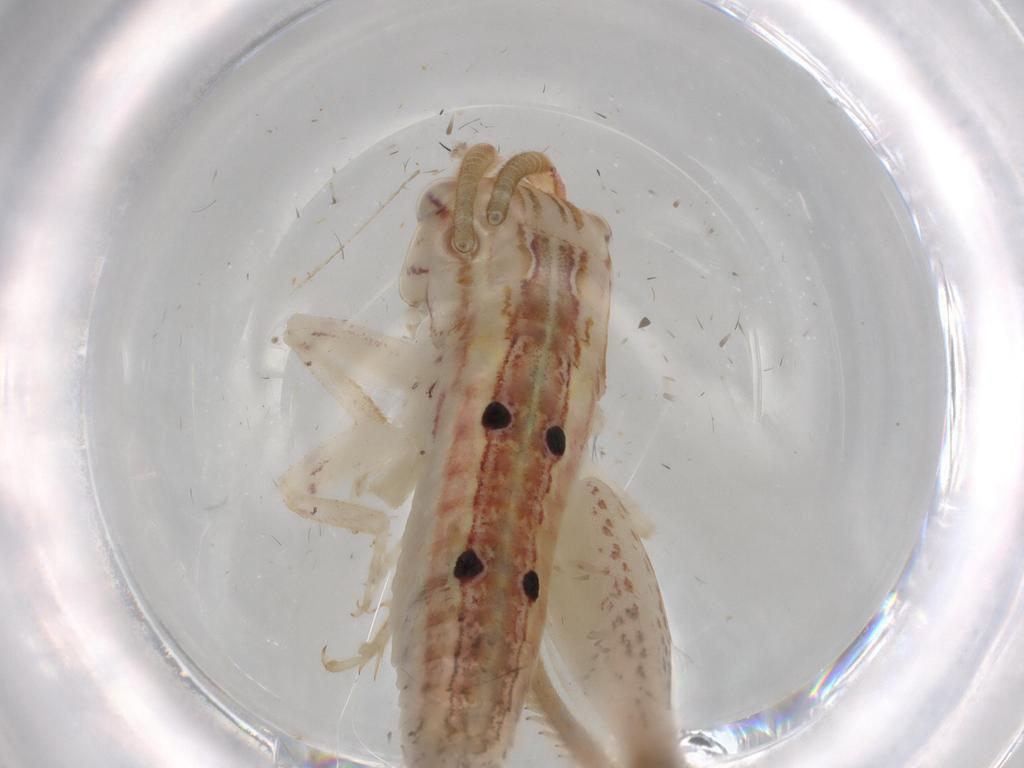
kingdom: Animalia
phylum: Arthropoda
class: Insecta
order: Orthoptera
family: Gryllidae
